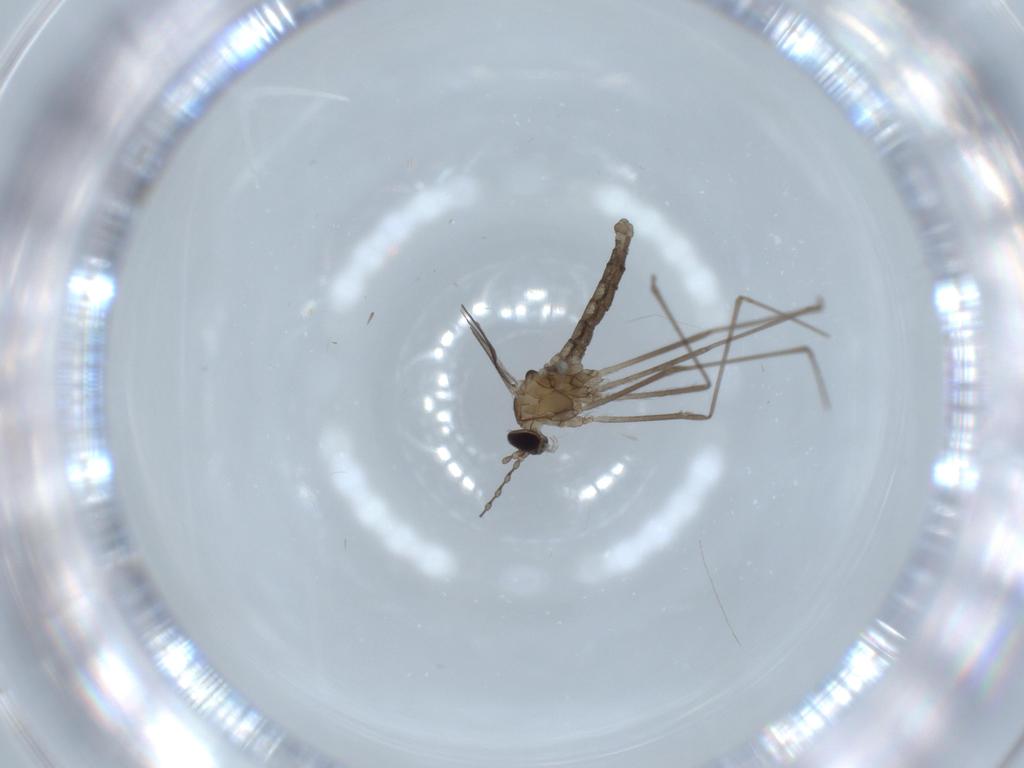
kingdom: Animalia
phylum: Arthropoda
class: Insecta
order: Diptera
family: Cecidomyiidae
